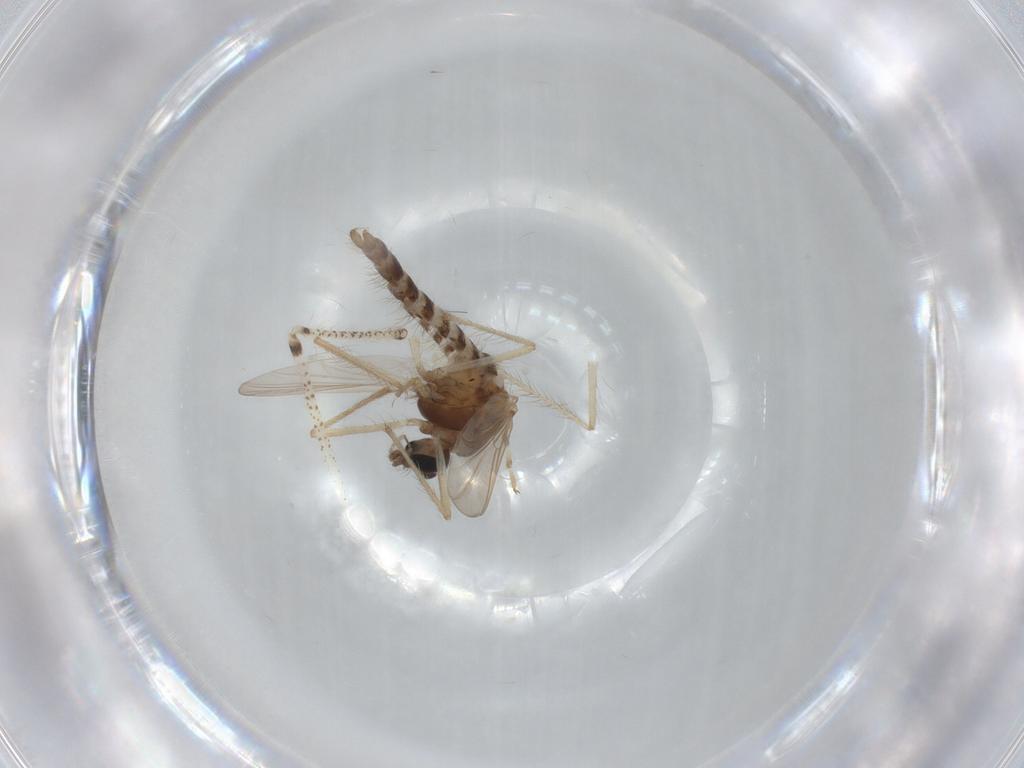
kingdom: Animalia
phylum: Arthropoda
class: Insecta
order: Diptera
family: Chironomidae
